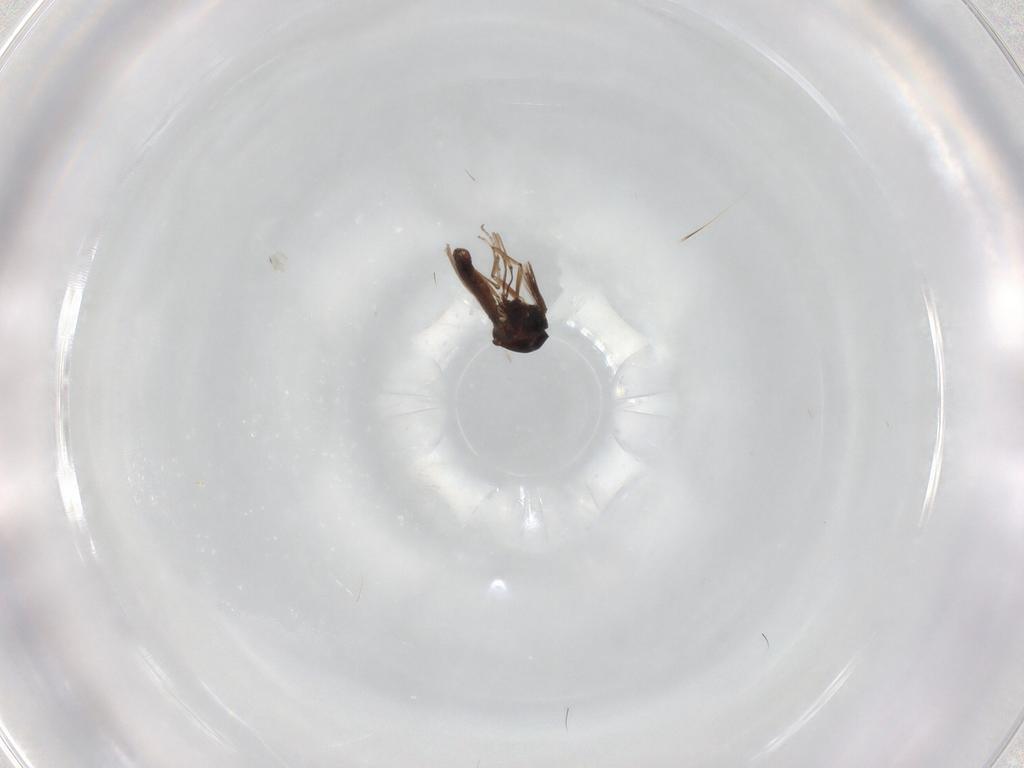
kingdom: Animalia
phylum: Arthropoda
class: Insecta
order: Diptera
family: Ceratopogonidae
